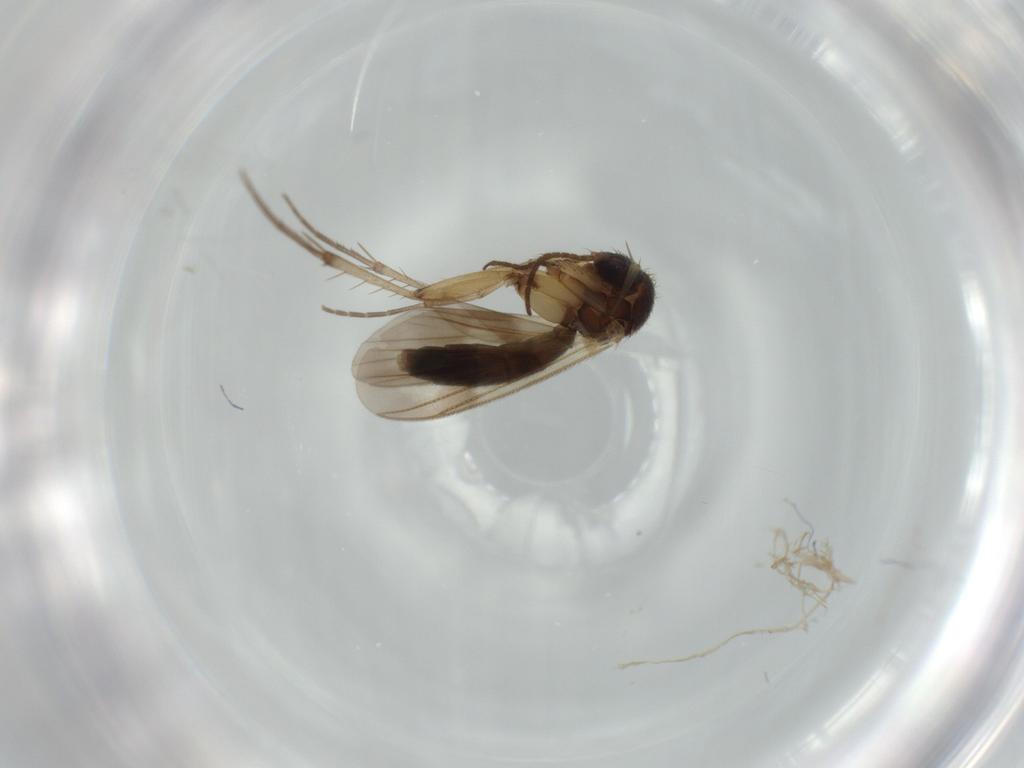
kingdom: Animalia
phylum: Arthropoda
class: Insecta
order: Diptera
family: Heleomyzidae
